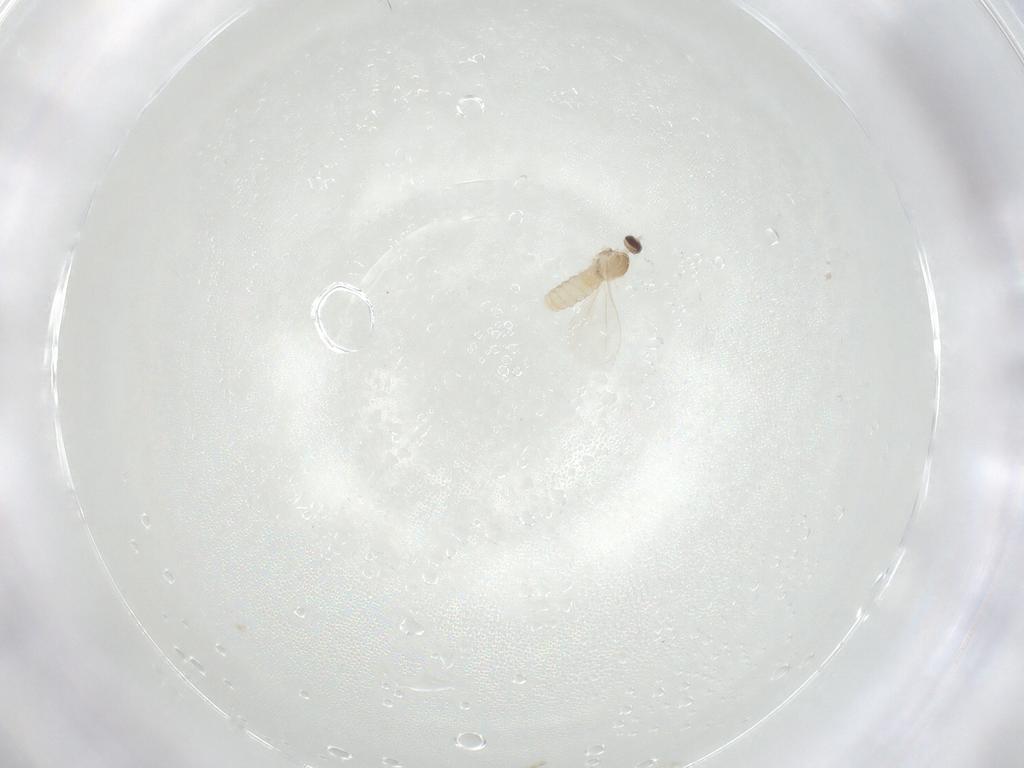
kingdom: Animalia
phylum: Arthropoda
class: Insecta
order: Diptera
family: Cecidomyiidae
